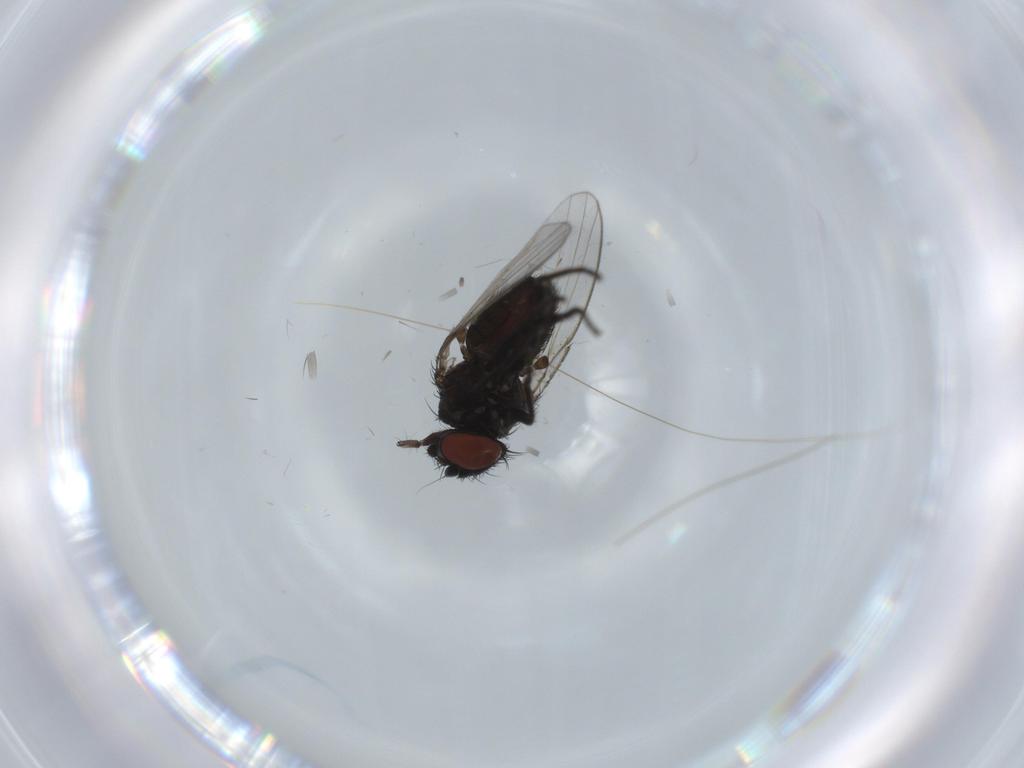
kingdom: Animalia
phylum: Arthropoda
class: Insecta
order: Diptera
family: Milichiidae
